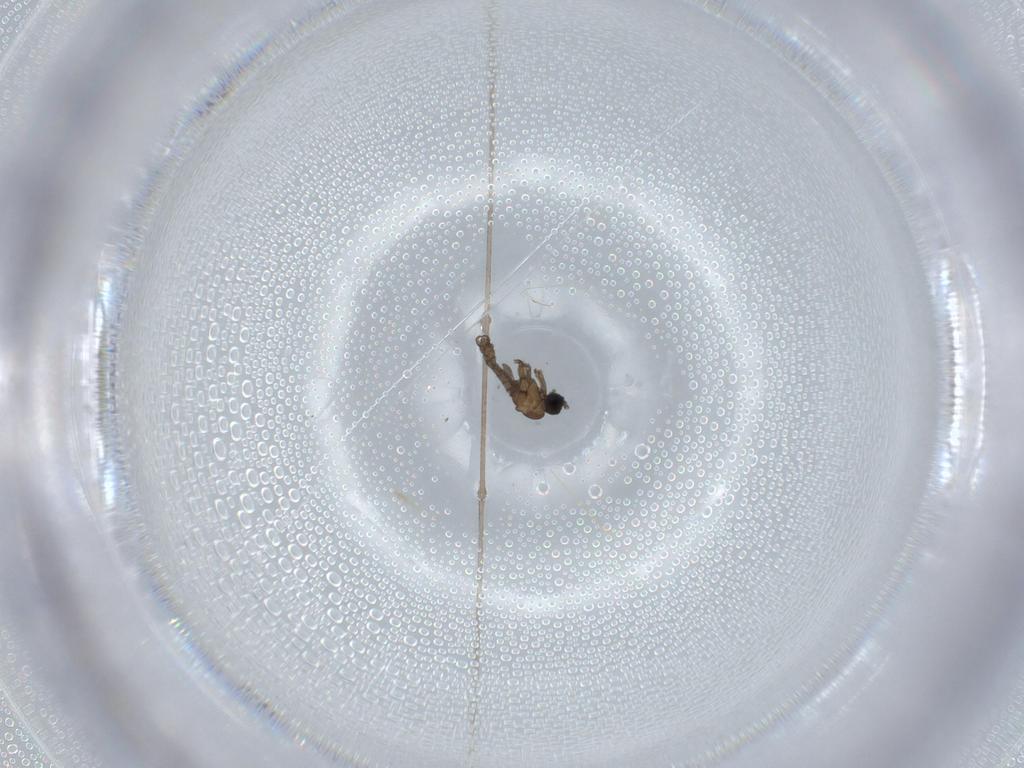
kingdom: Animalia
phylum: Arthropoda
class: Insecta
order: Diptera
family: Sciaridae
